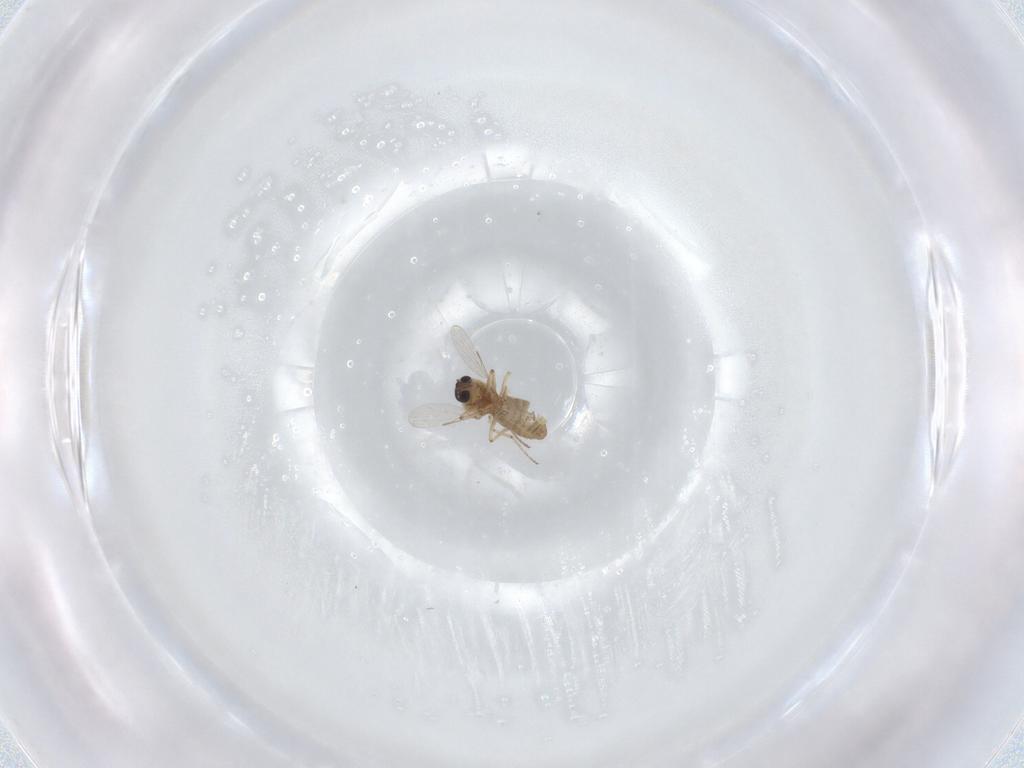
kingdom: Animalia
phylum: Arthropoda
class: Insecta
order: Diptera
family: Ceratopogonidae
